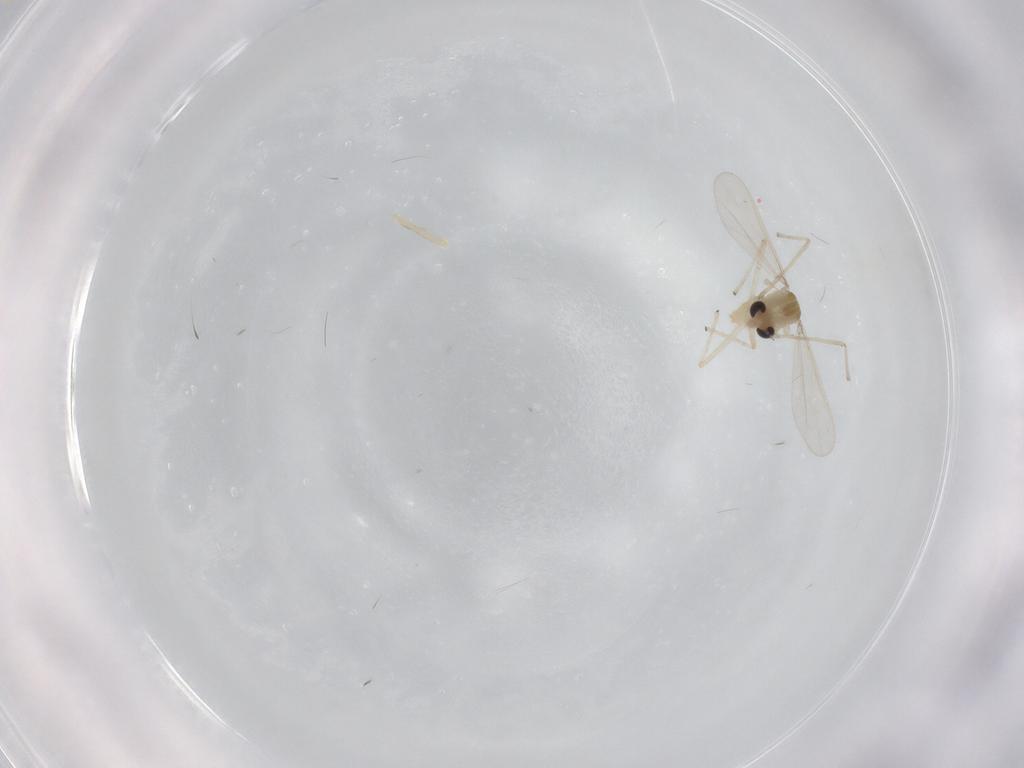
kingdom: Animalia
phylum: Arthropoda
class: Insecta
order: Diptera
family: Chironomidae
